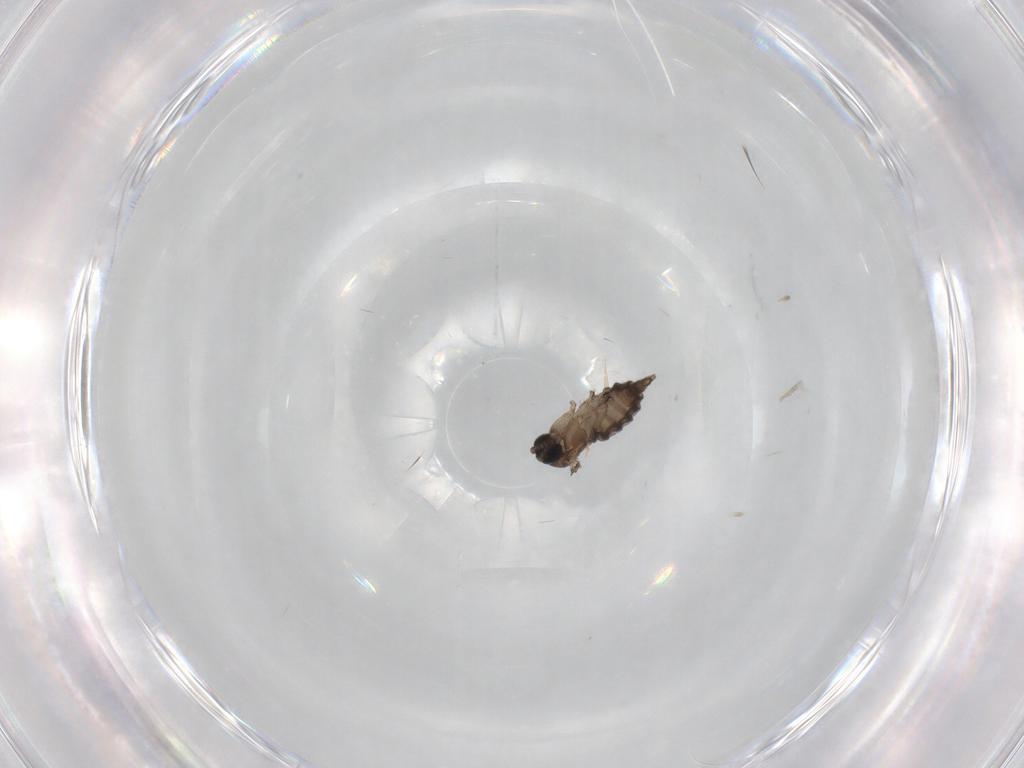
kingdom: Animalia
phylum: Arthropoda
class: Insecta
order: Diptera
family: Sciaridae
